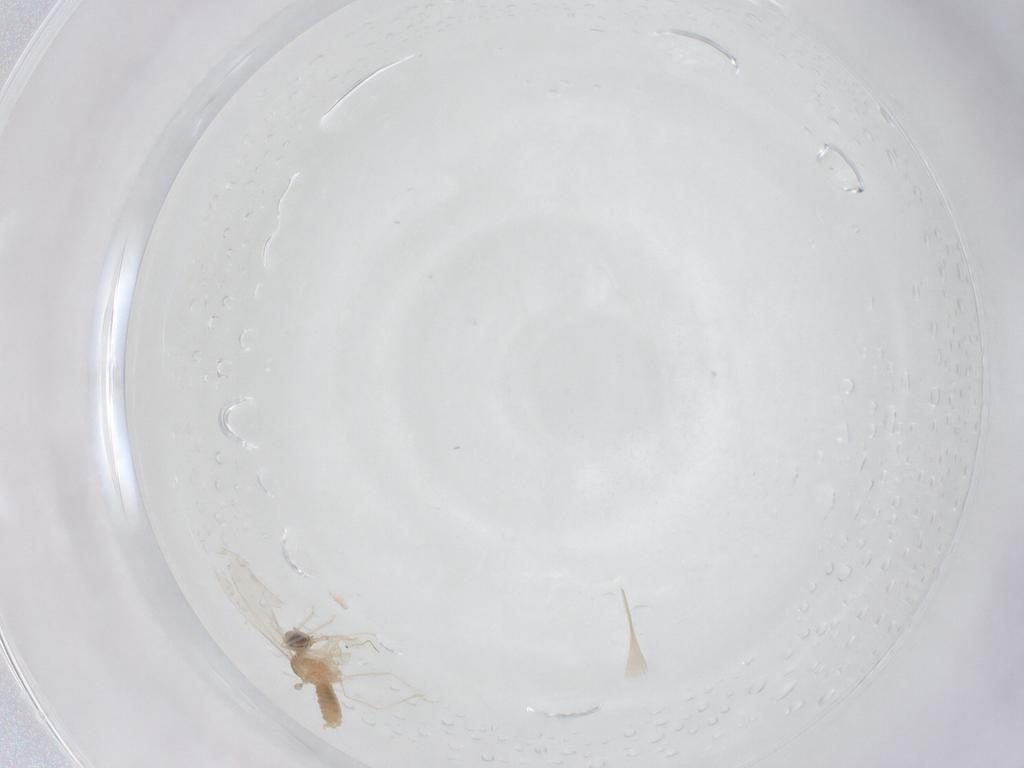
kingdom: Animalia
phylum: Arthropoda
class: Insecta
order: Diptera
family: Cecidomyiidae
